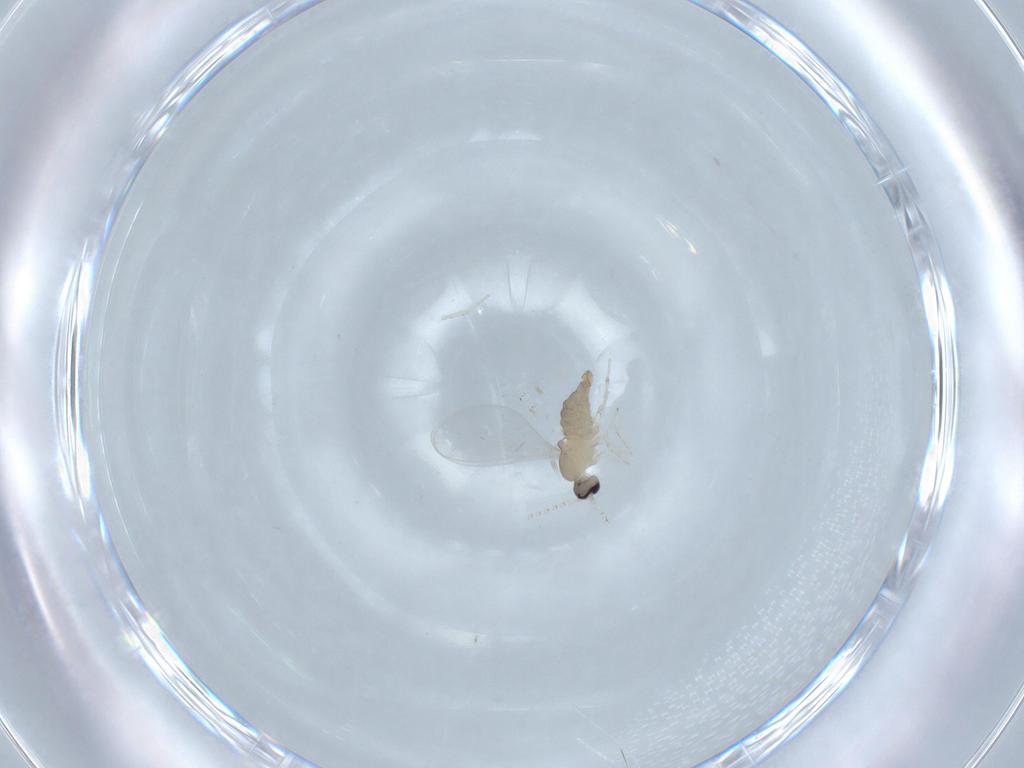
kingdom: Animalia
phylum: Arthropoda
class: Insecta
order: Diptera
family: Cecidomyiidae
